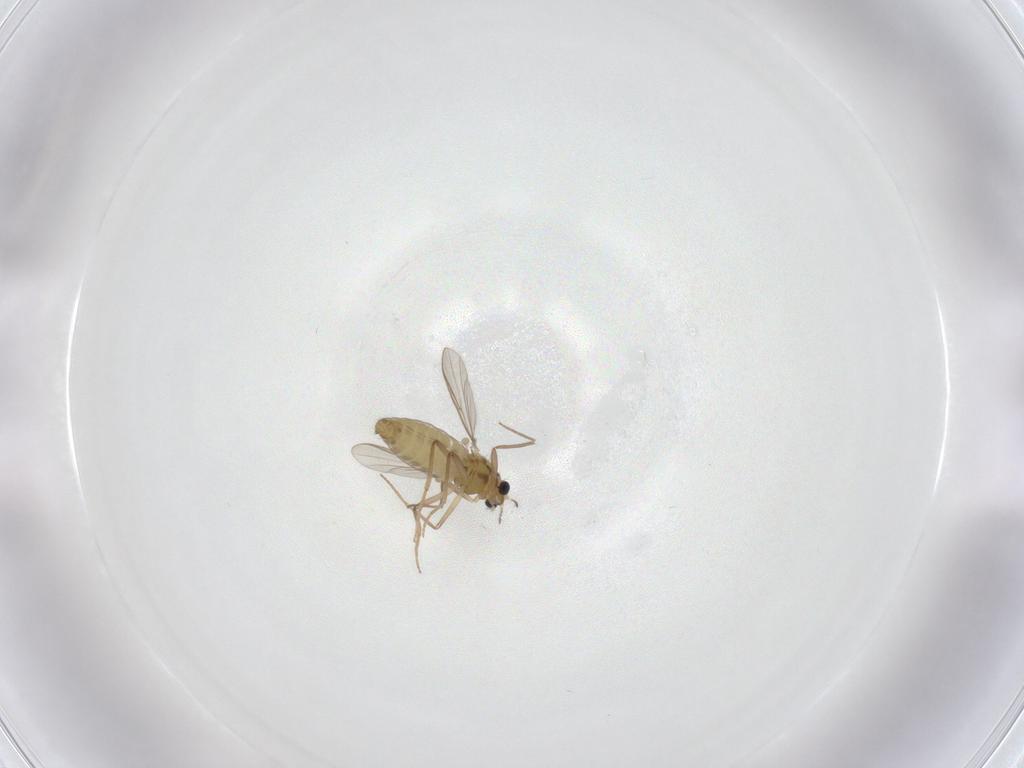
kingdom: Animalia
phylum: Arthropoda
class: Insecta
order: Diptera
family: Chironomidae
